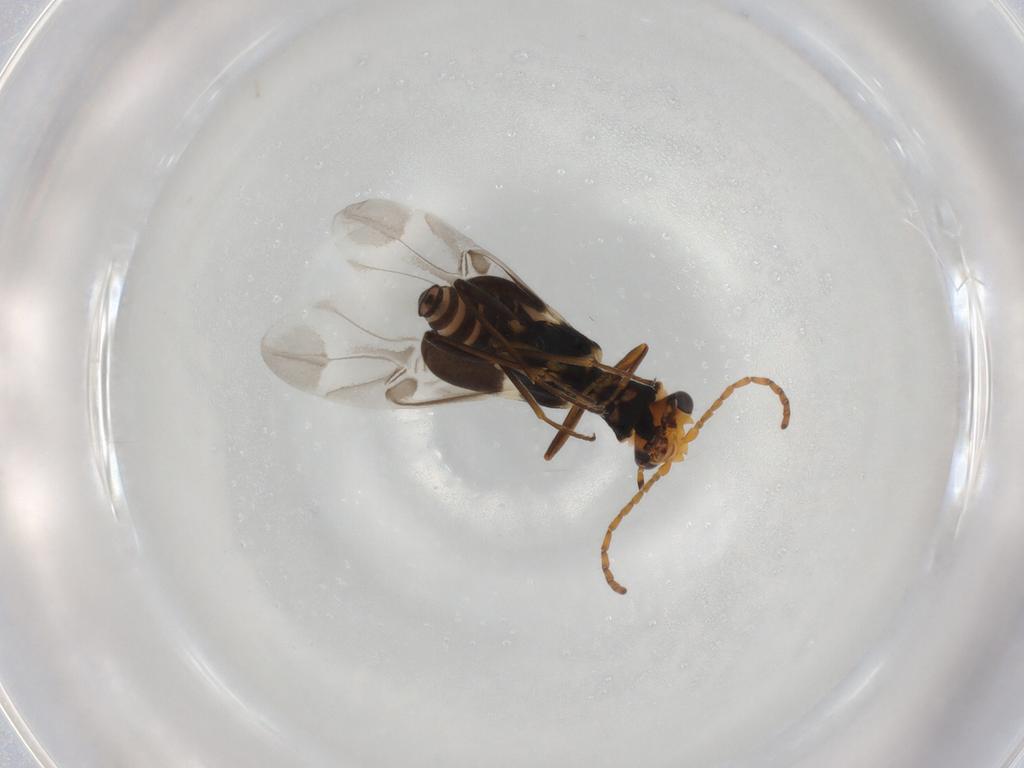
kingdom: Animalia
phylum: Arthropoda
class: Insecta
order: Coleoptera
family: Melyridae
